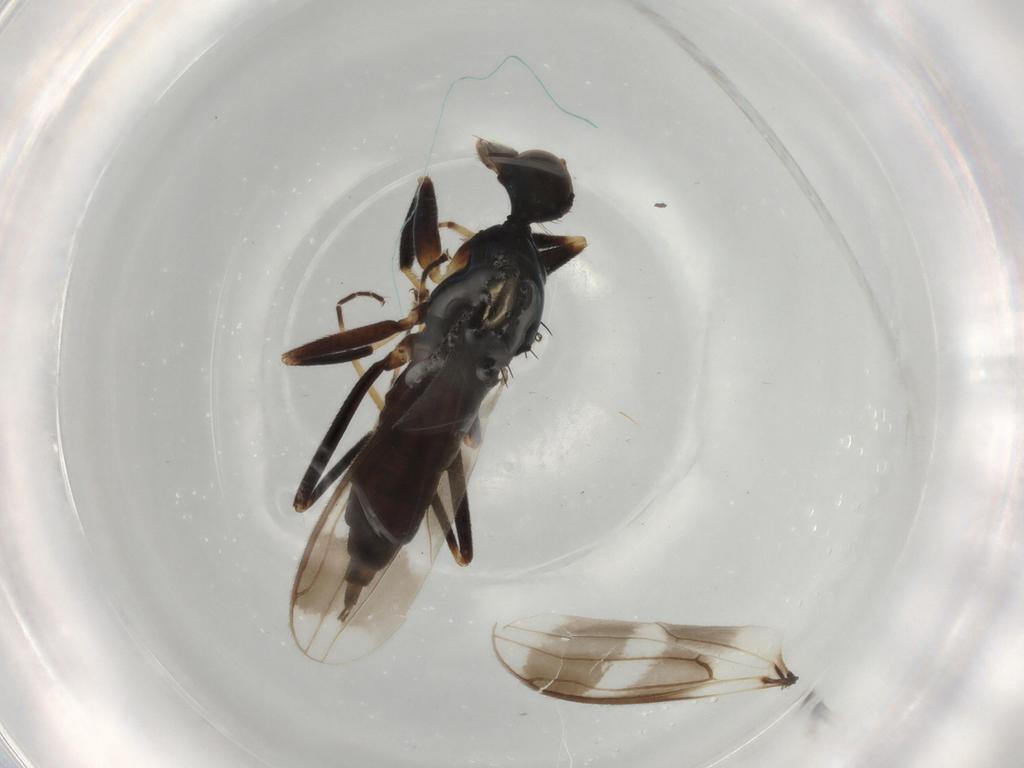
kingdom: Animalia
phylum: Arthropoda
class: Insecta
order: Diptera
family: Hybotidae
